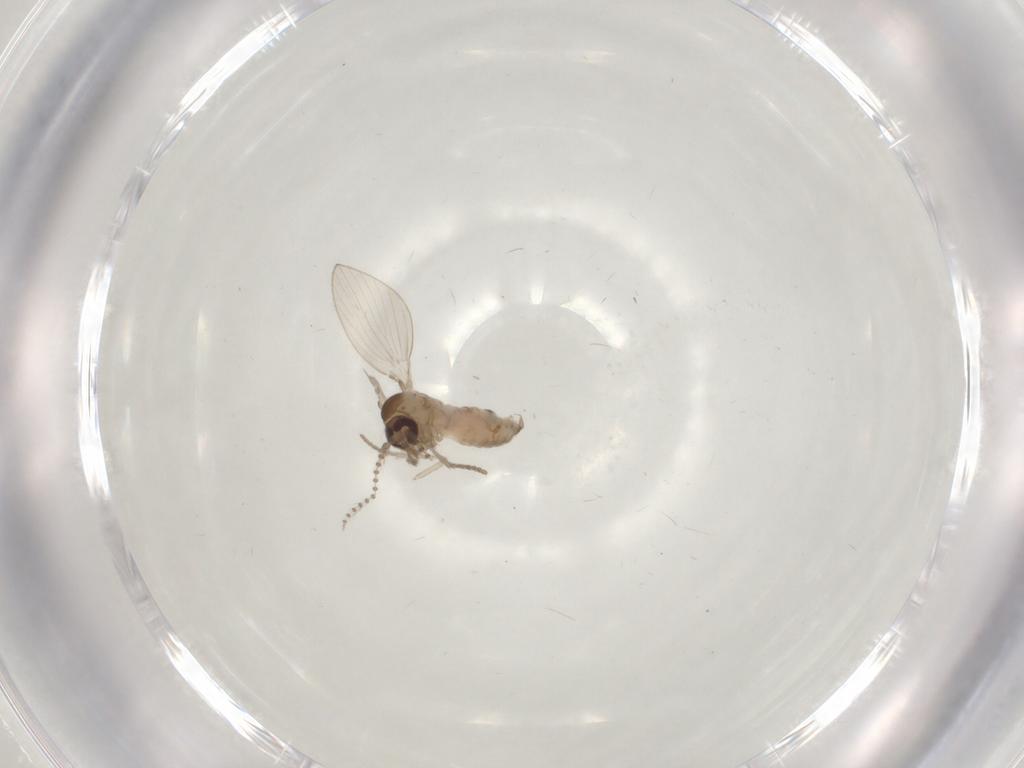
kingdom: Animalia
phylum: Arthropoda
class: Insecta
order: Diptera
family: Psychodidae
